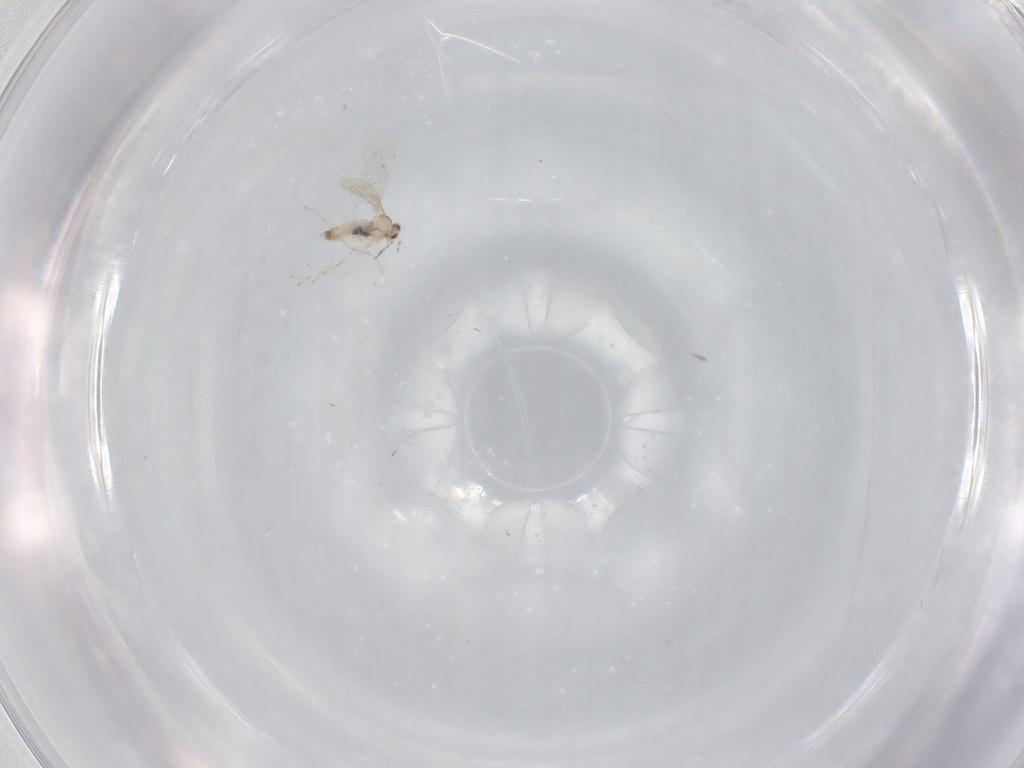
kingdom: Animalia
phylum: Arthropoda
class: Insecta
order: Diptera
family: Cecidomyiidae
